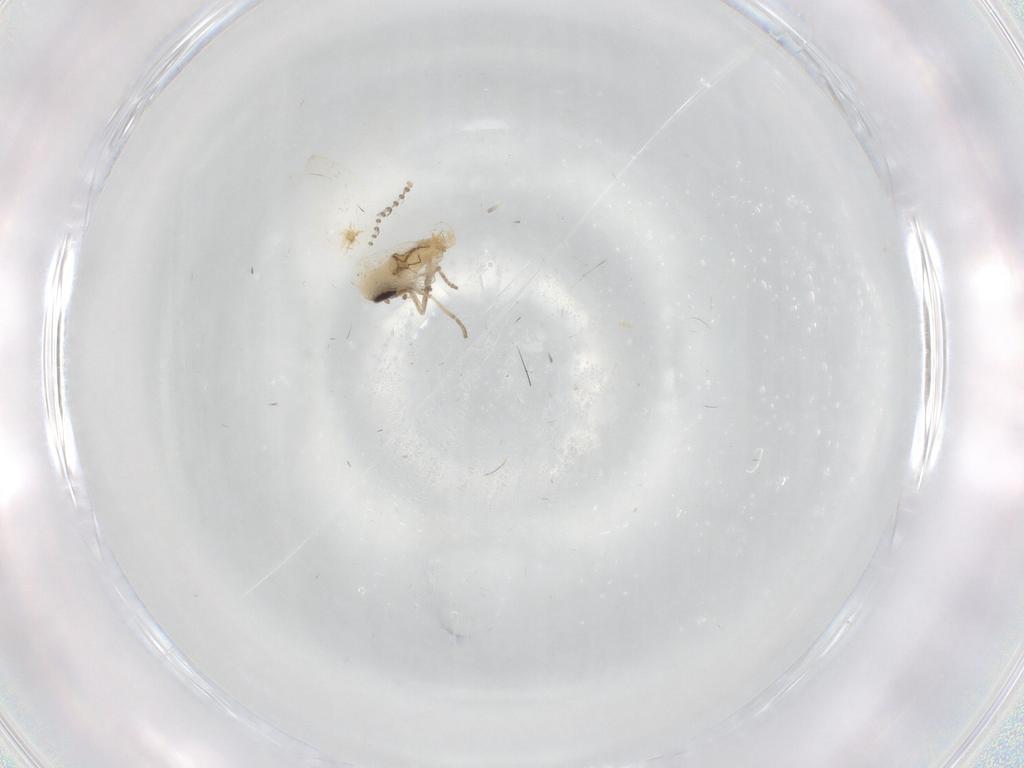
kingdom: Animalia
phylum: Arthropoda
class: Insecta
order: Diptera
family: Psychodidae
